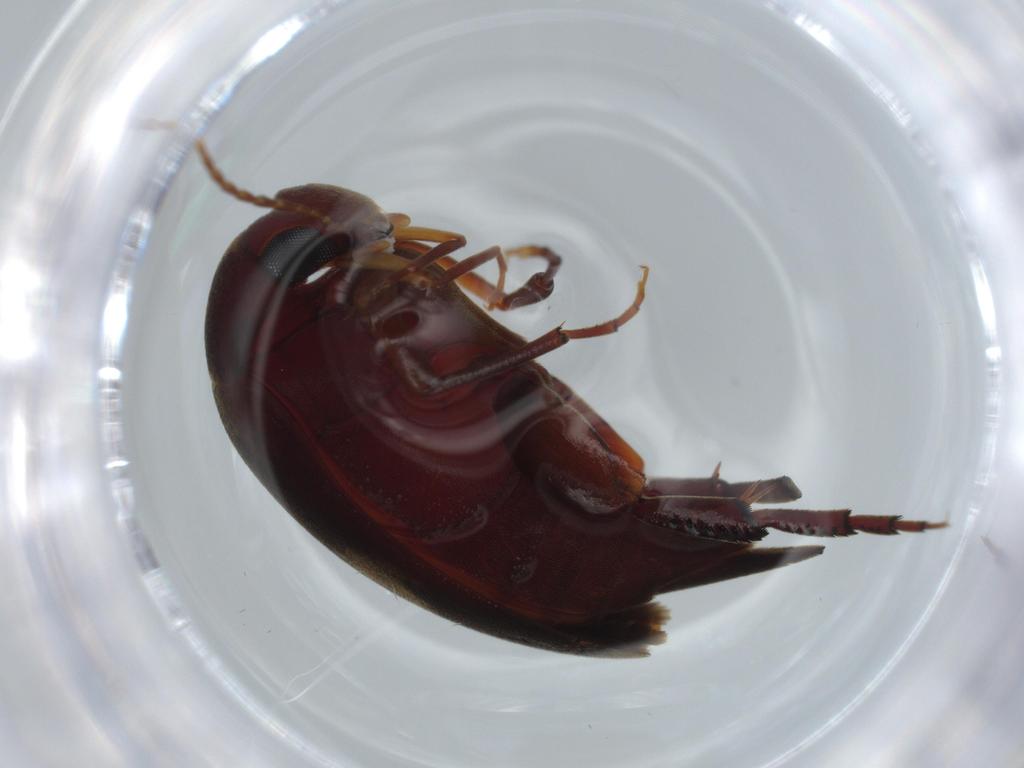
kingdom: Animalia
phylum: Arthropoda
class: Insecta
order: Coleoptera
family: Mordellidae
